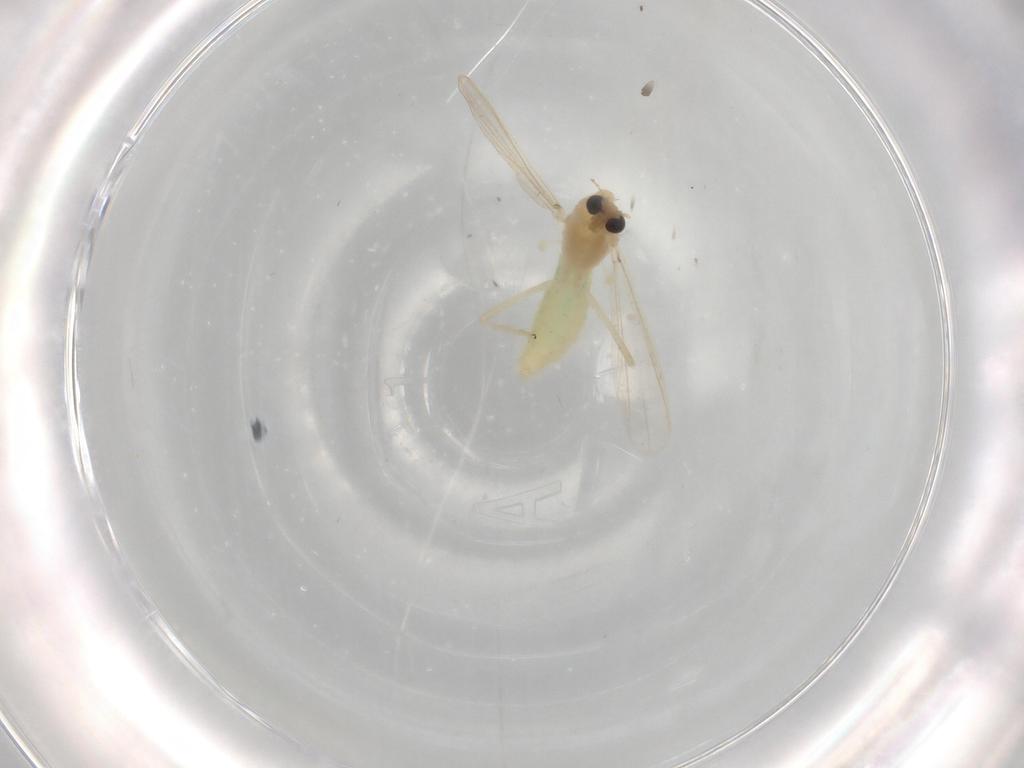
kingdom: Animalia
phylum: Arthropoda
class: Insecta
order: Diptera
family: Chironomidae
